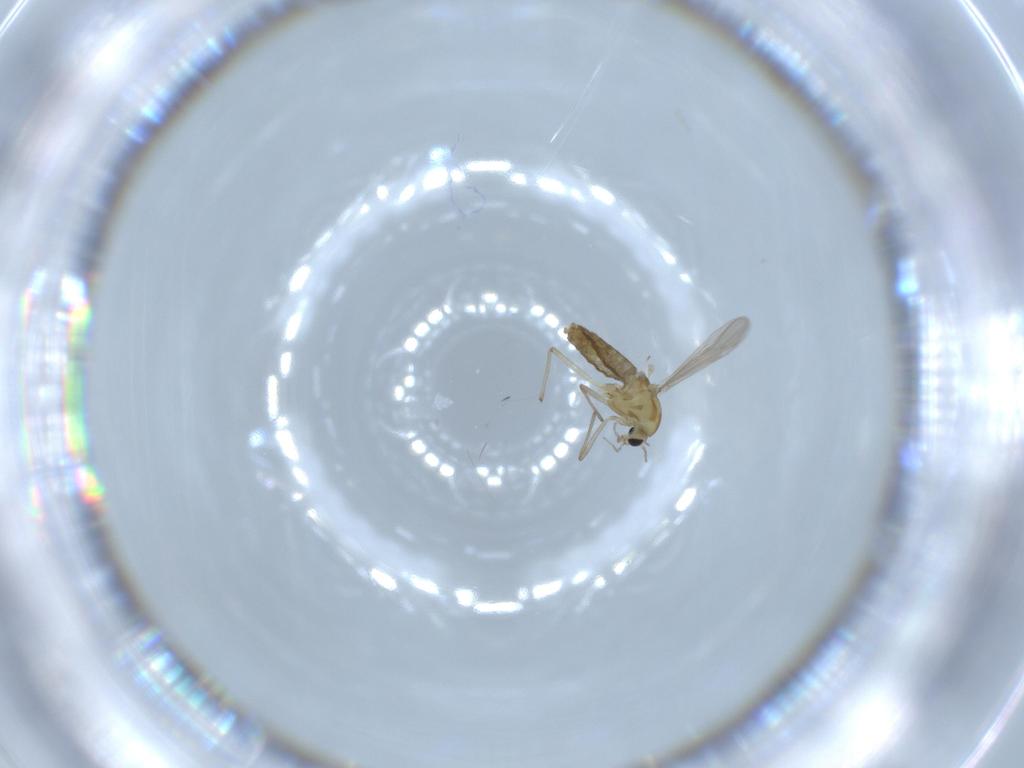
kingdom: Animalia
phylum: Arthropoda
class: Insecta
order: Diptera
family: Chironomidae
